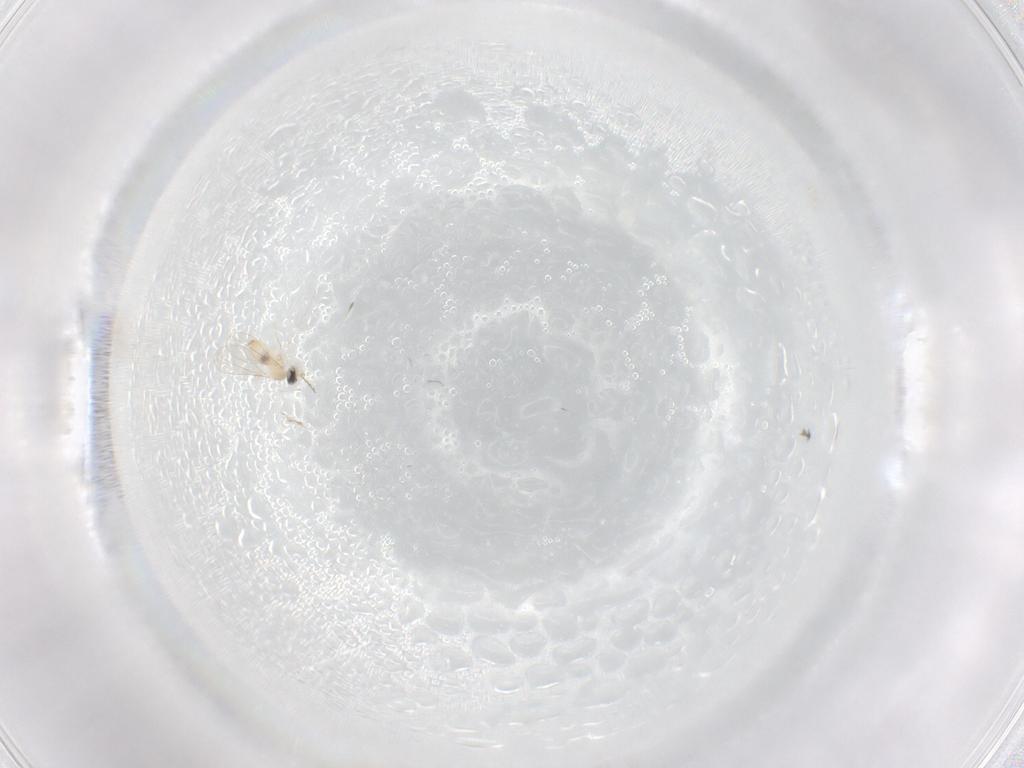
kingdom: Animalia
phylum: Arthropoda
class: Insecta
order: Diptera
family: Cecidomyiidae
